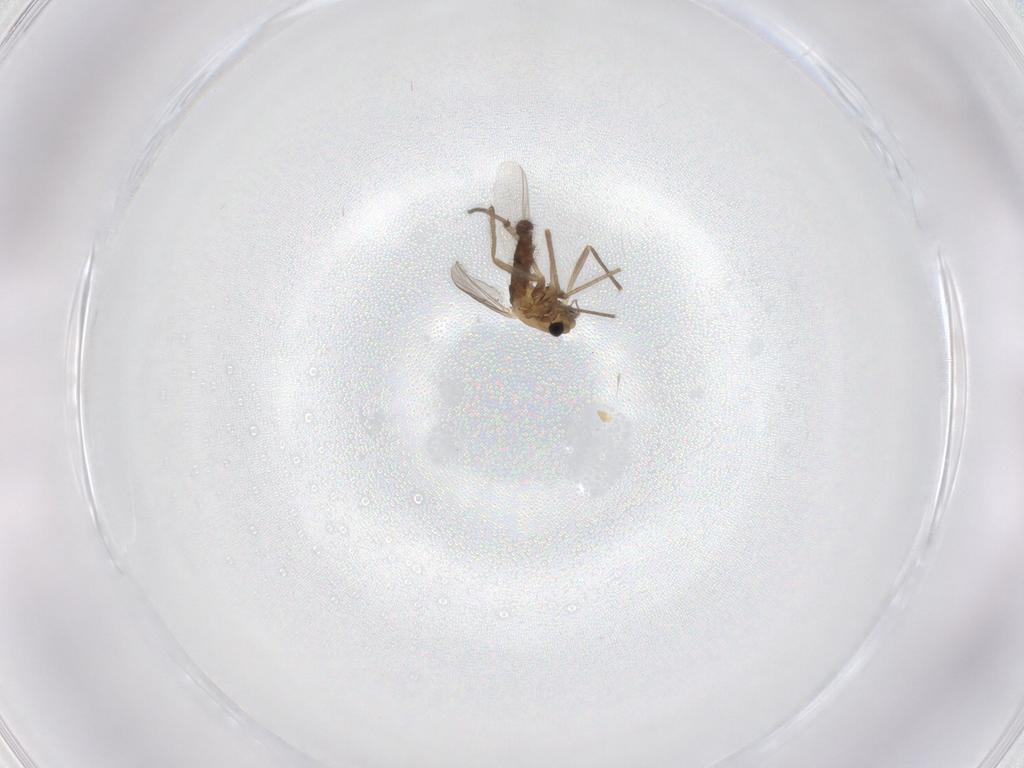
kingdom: Animalia
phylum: Arthropoda
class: Insecta
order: Diptera
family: Chironomidae
